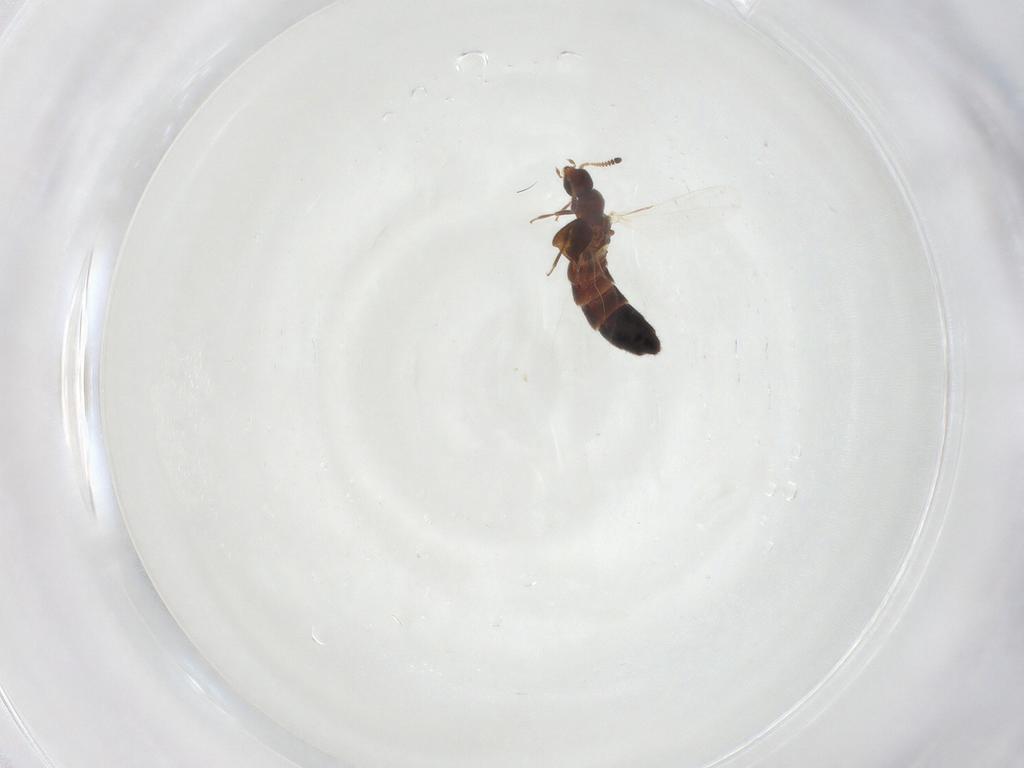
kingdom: Animalia
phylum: Arthropoda
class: Insecta
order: Coleoptera
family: Staphylinidae
